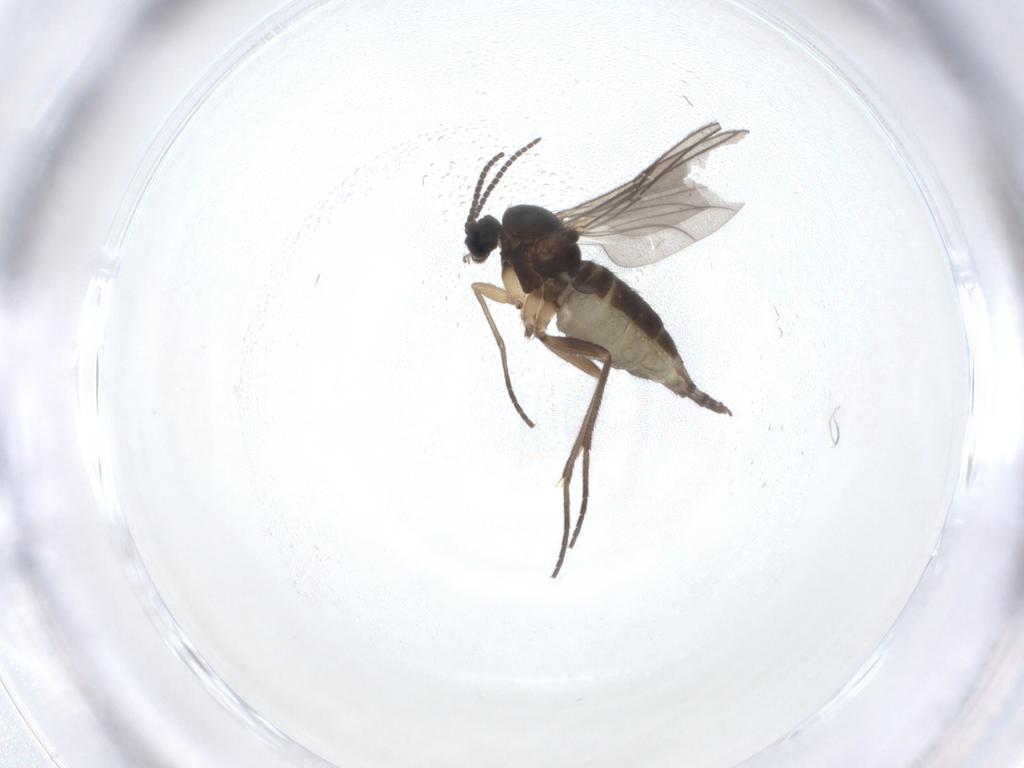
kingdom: Animalia
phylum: Arthropoda
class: Insecta
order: Diptera
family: Sciaridae
